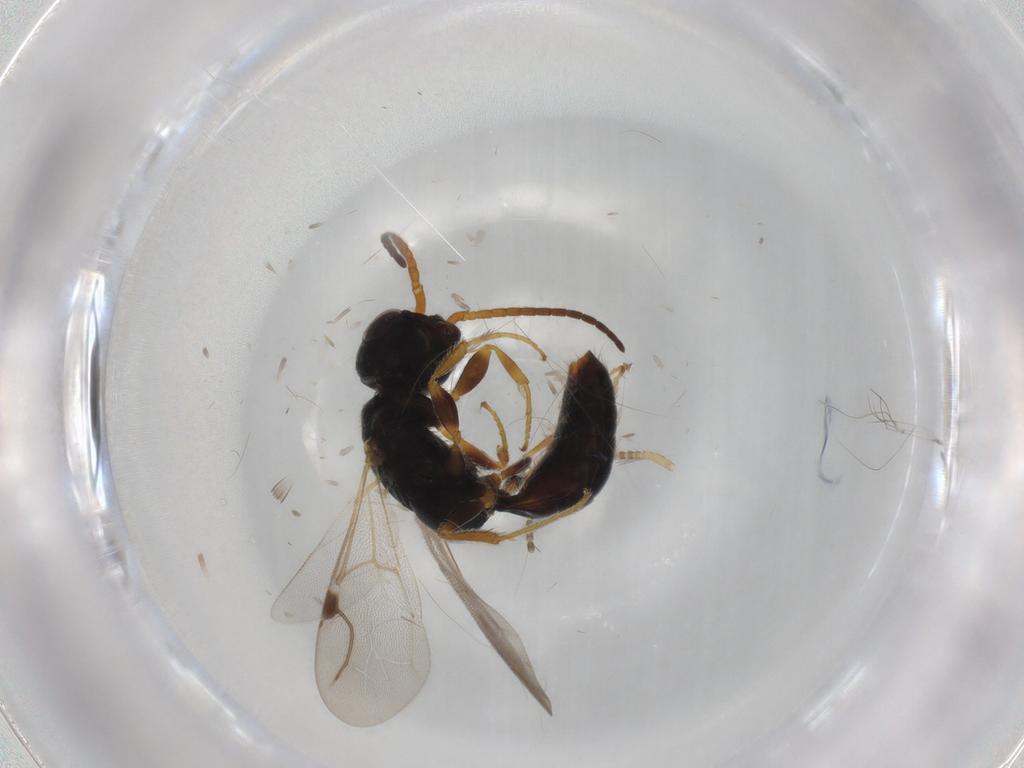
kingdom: Animalia
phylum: Arthropoda
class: Insecta
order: Hymenoptera
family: Bethylidae
